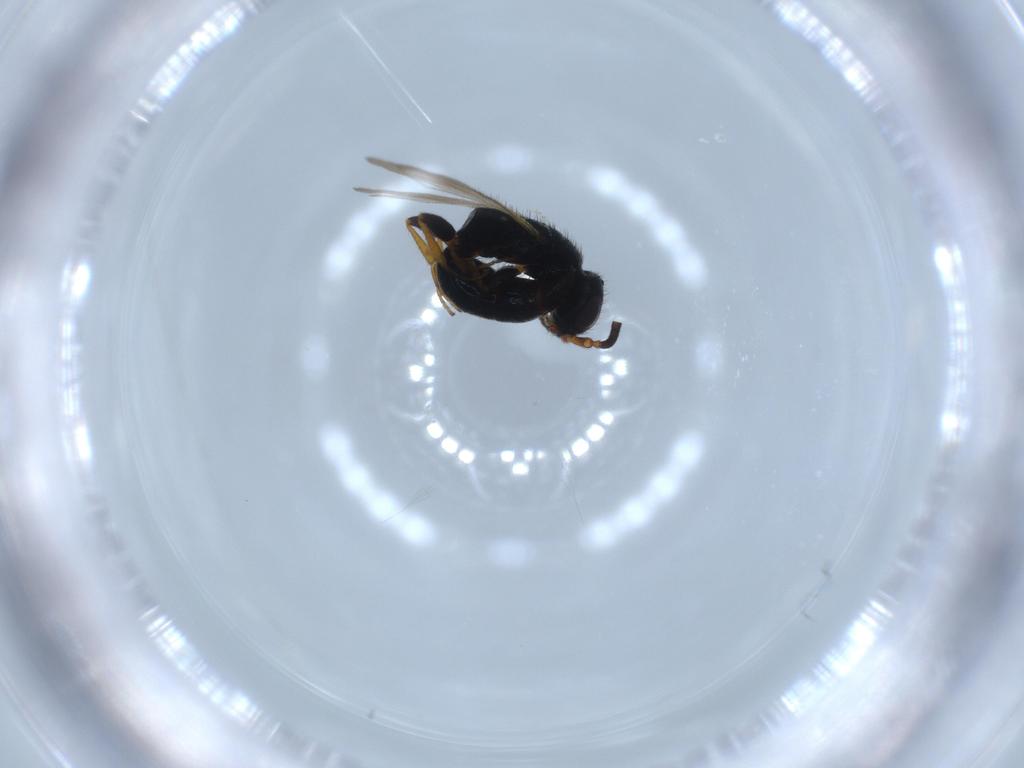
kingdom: Animalia
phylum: Arthropoda
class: Insecta
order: Hymenoptera
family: Bethylidae
